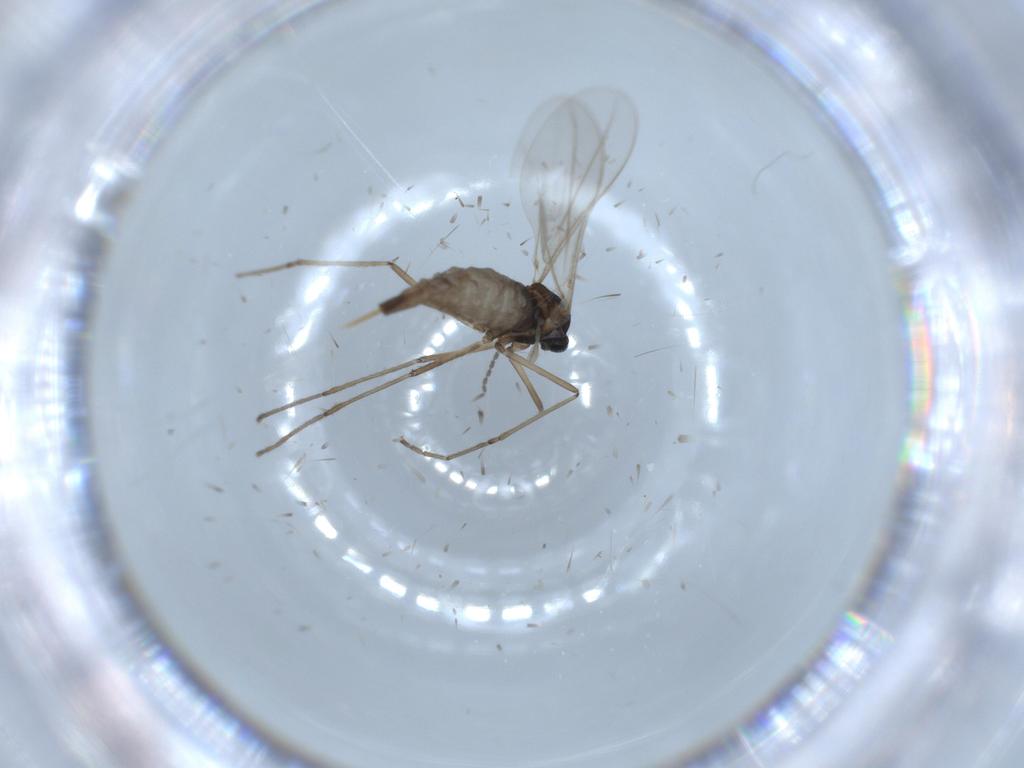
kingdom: Animalia
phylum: Arthropoda
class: Insecta
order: Diptera
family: Cecidomyiidae
